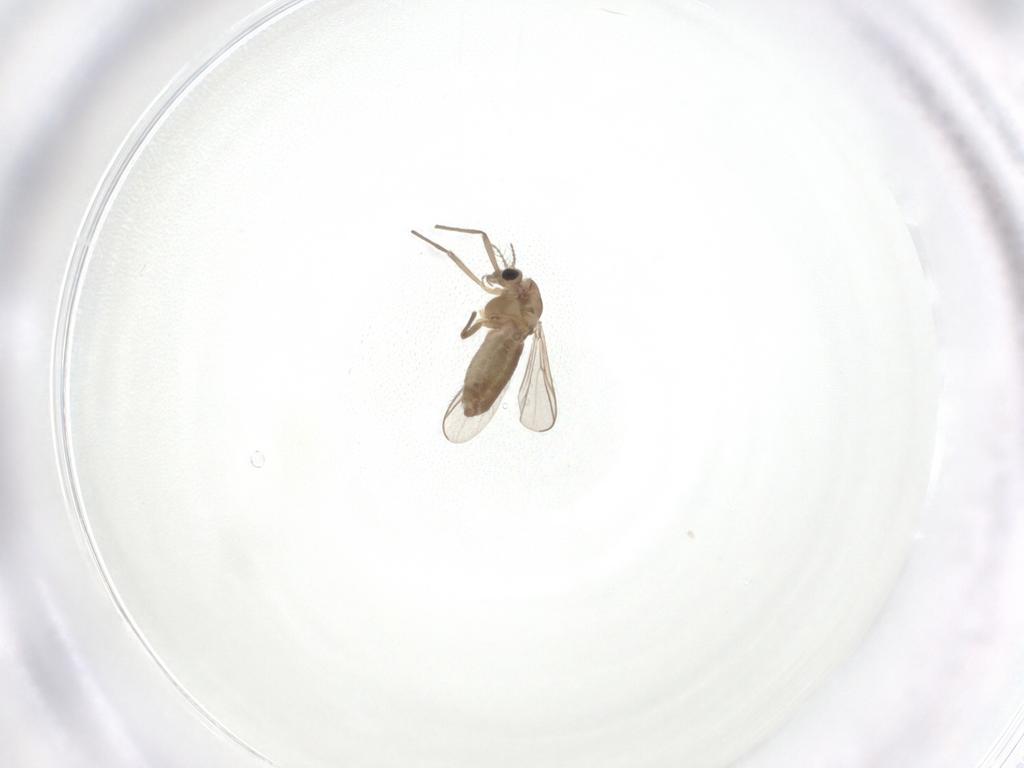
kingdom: Animalia
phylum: Arthropoda
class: Insecta
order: Diptera
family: Chironomidae
